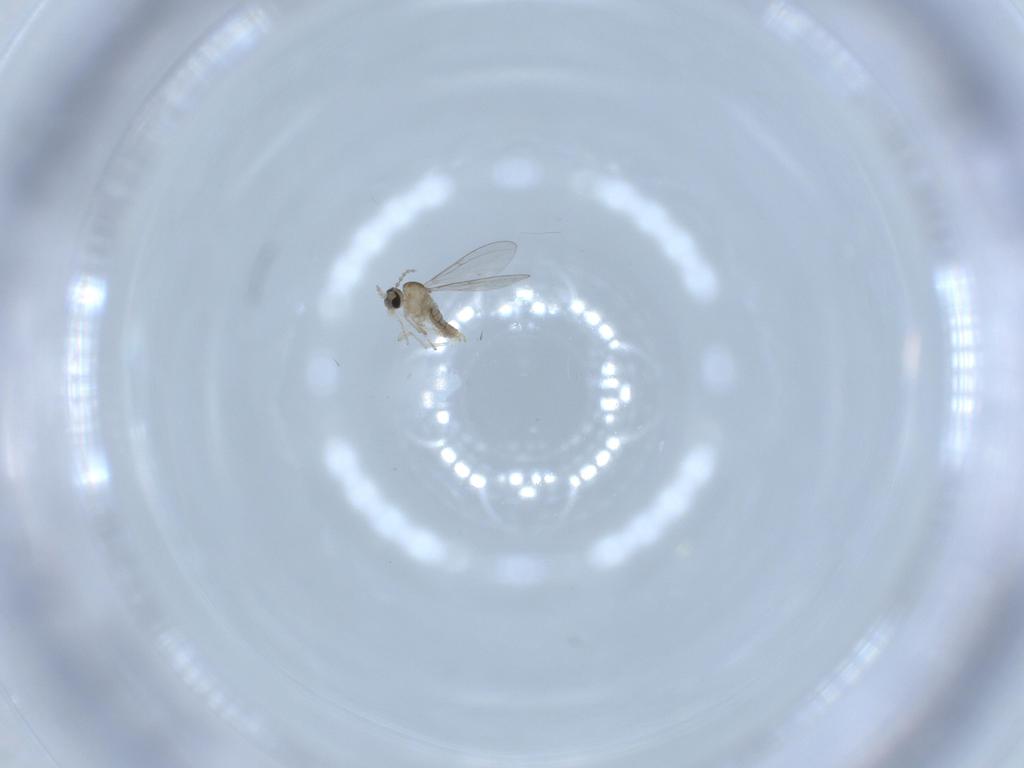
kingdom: Animalia
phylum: Arthropoda
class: Insecta
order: Diptera
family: Cecidomyiidae
